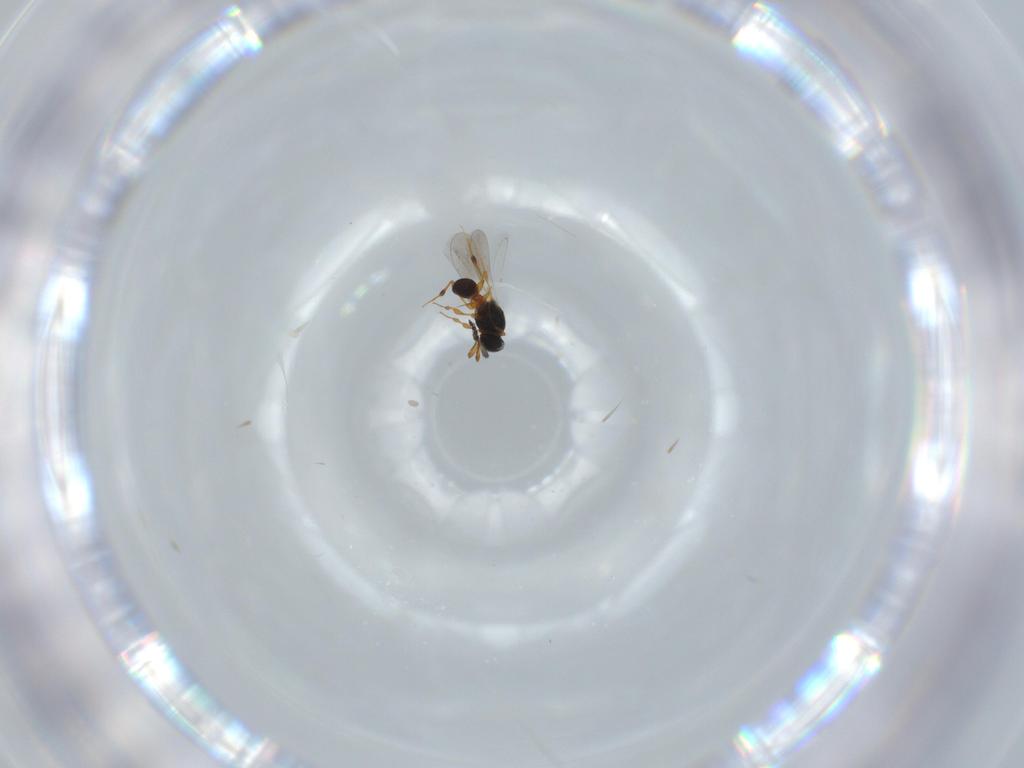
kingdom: Animalia
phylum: Arthropoda
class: Insecta
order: Hymenoptera
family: Platygastridae
